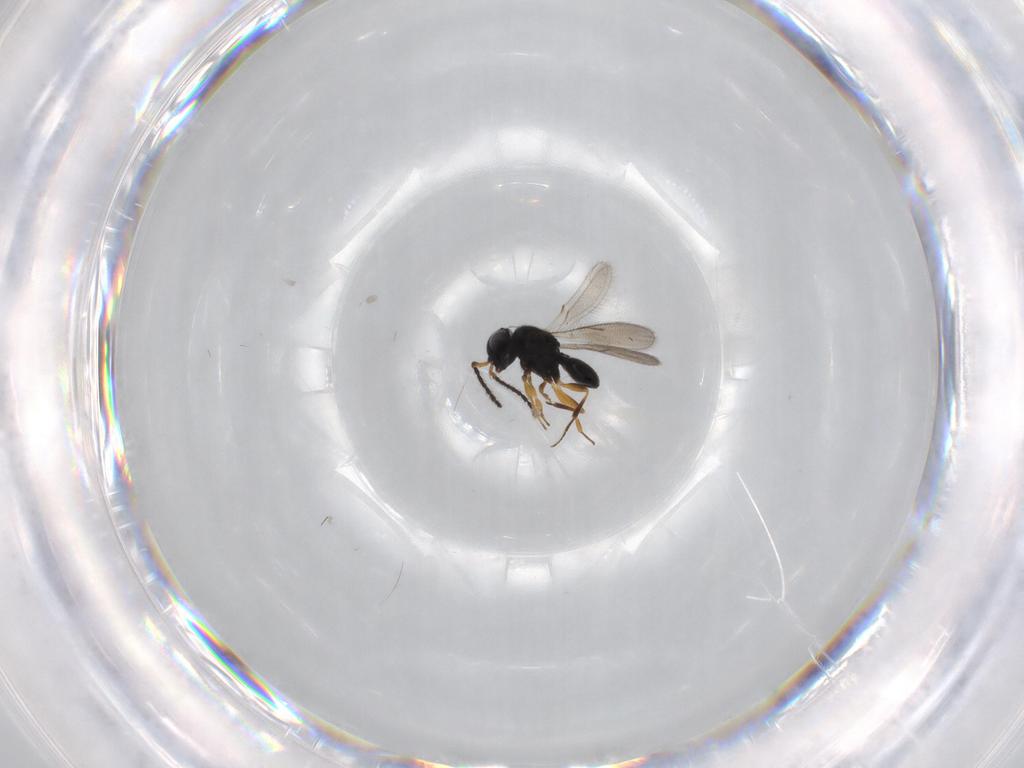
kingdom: Animalia
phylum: Arthropoda
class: Insecta
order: Hymenoptera
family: Scelionidae
